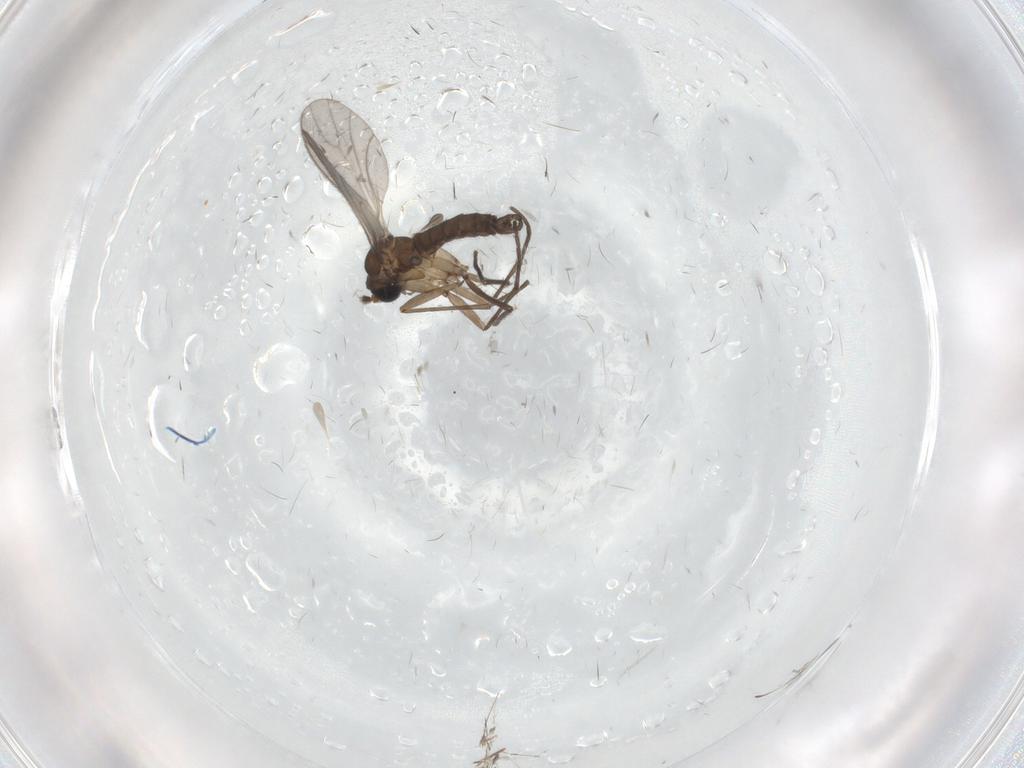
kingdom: Animalia
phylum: Arthropoda
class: Insecta
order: Diptera
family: Sciaridae
